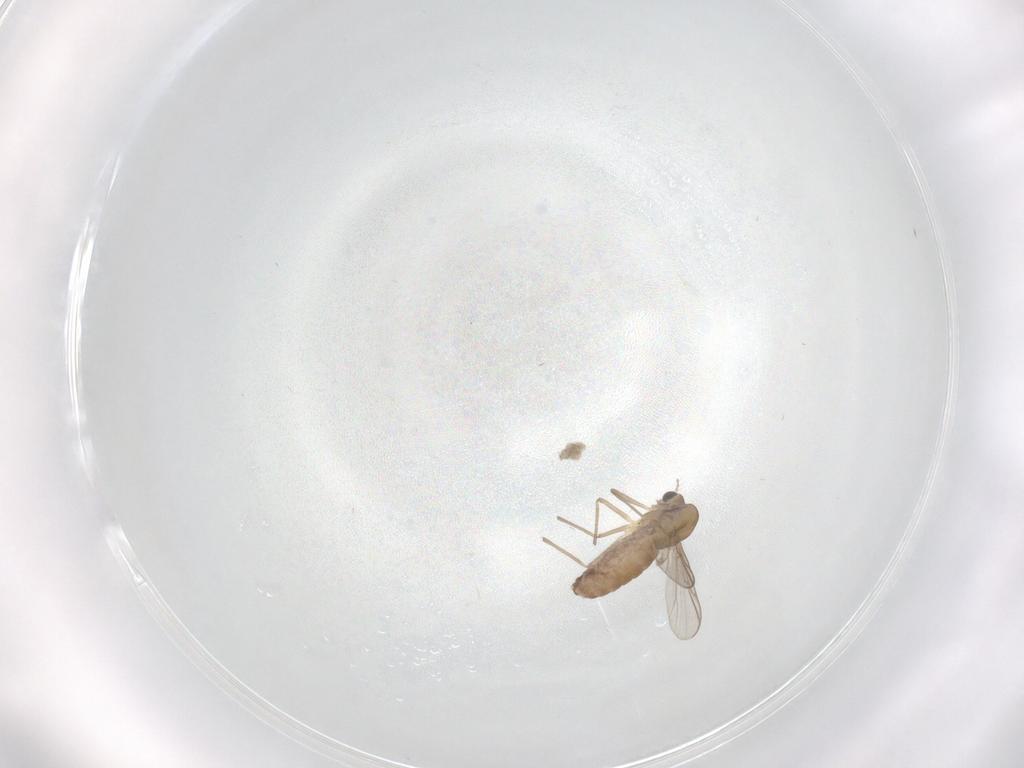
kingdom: Animalia
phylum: Arthropoda
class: Insecta
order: Diptera
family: Chironomidae
